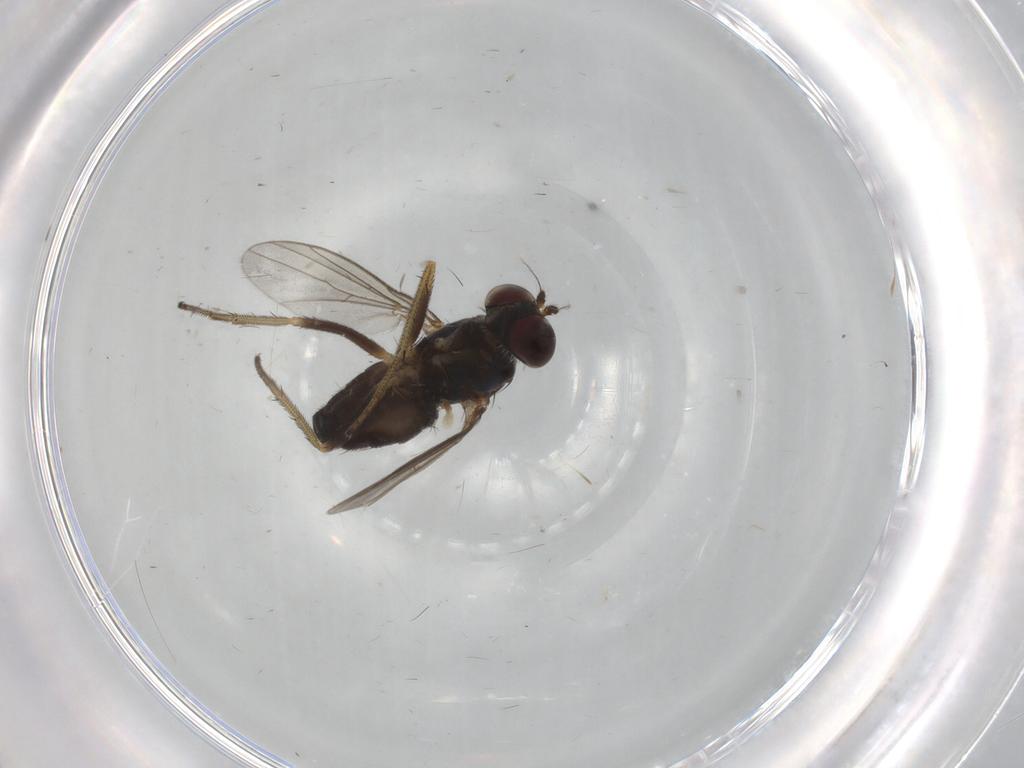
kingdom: Animalia
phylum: Arthropoda
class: Insecta
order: Diptera
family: Dolichopodidae
